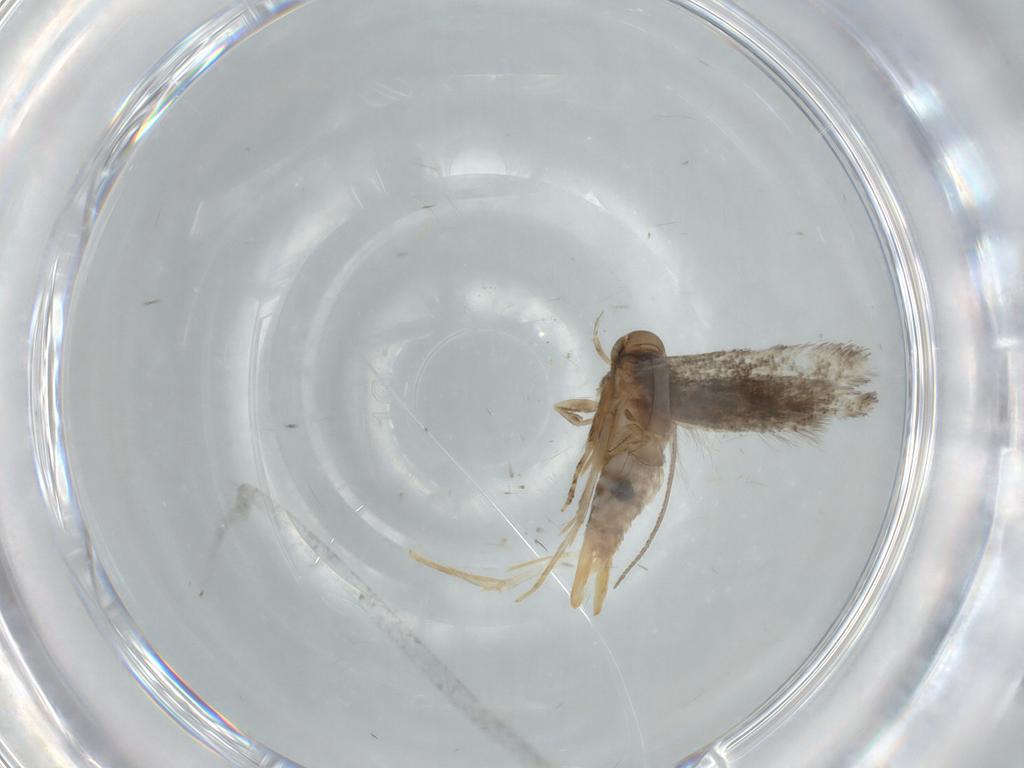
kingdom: Animalia
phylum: Arthropoda
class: Insecta
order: Lepidoptera
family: Elachistidae
